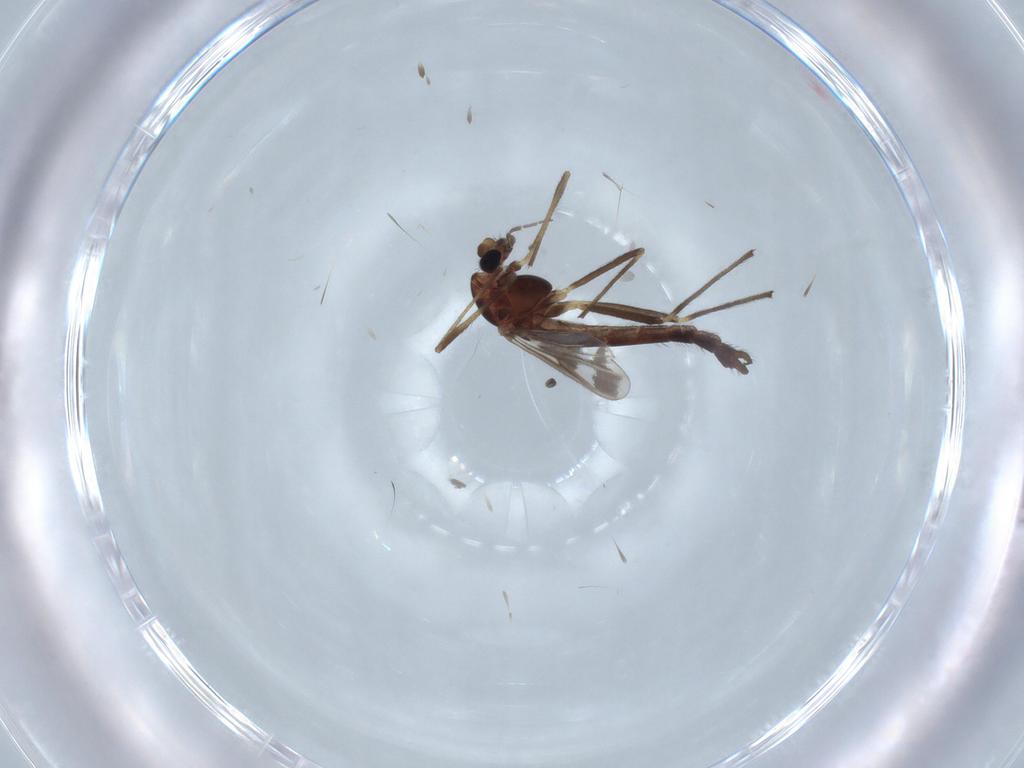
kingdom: Animalia
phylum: Arthropoda
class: Insecta
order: Diptera
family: Chironomidae
